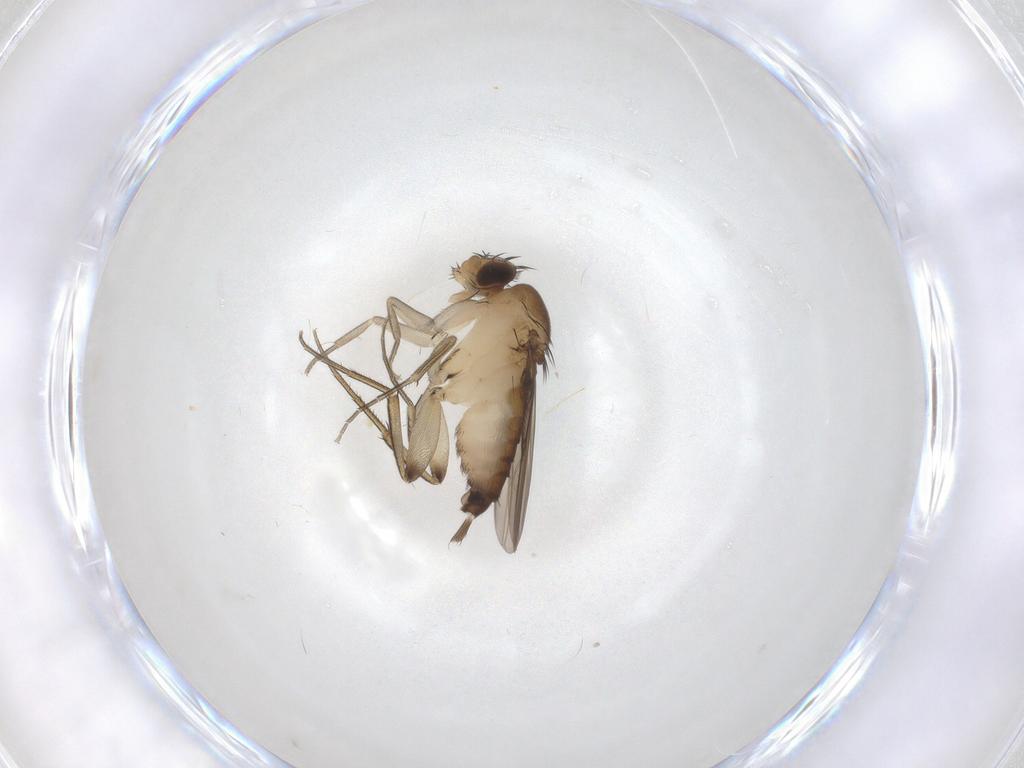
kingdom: Animalia
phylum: Arthropoda
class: Insecta
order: Diptera
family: Phoridae
